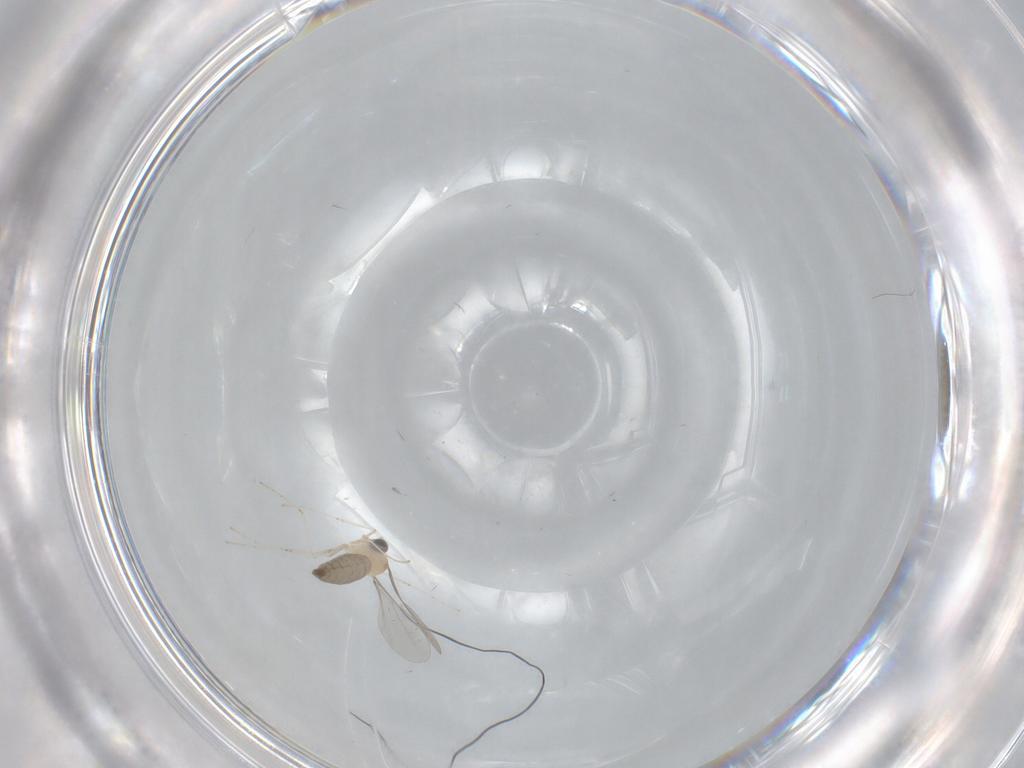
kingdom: Animalia
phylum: Arthropoda
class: Insecta
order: Diptera
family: Cecidomyiidae
